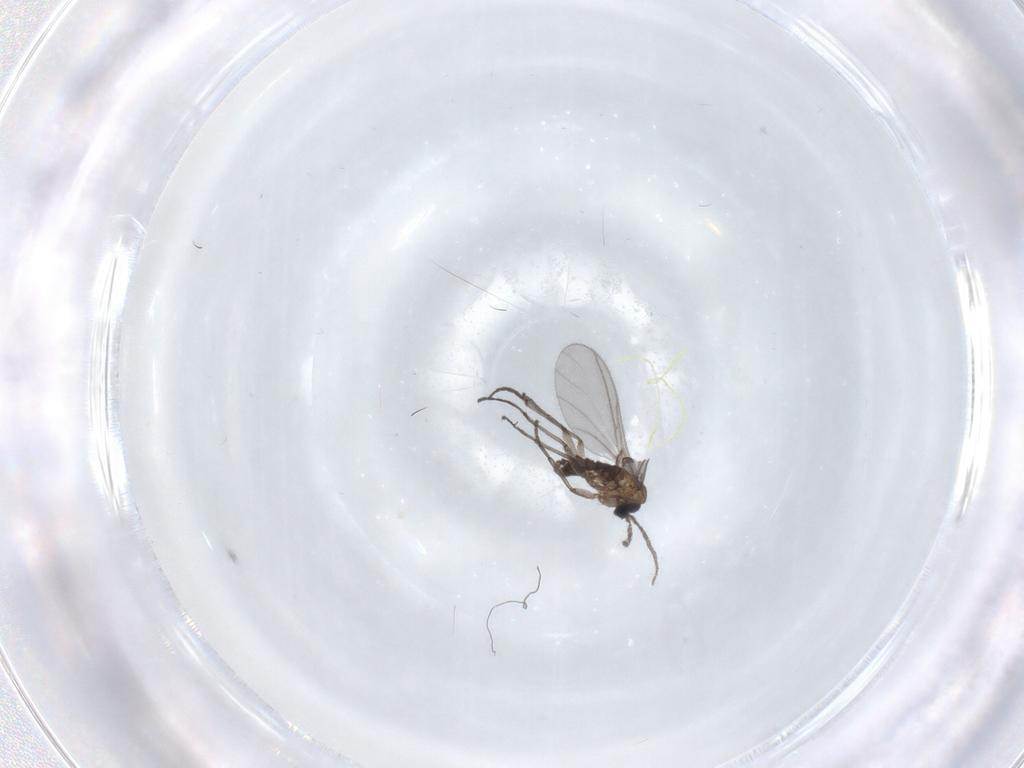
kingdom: Animalia
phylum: Arthropoda
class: Insecta
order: Diptera
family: Sciaridae
